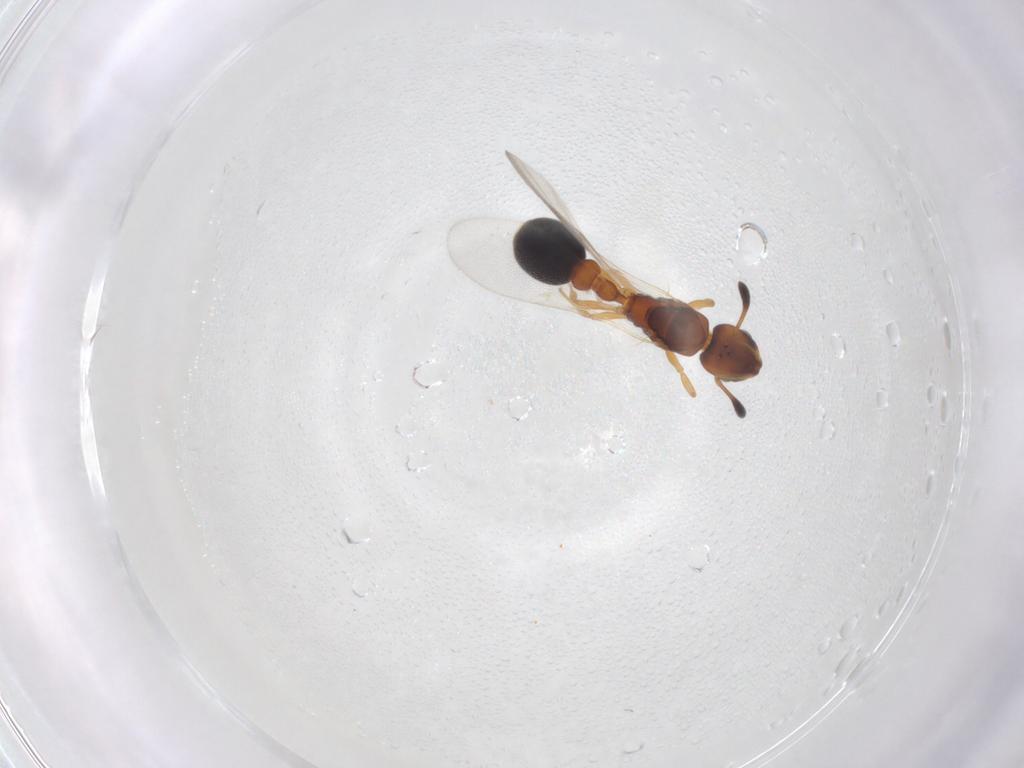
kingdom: Animalia
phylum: Arthropoda
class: Insecta
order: Hymenoptera
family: Formicidae
